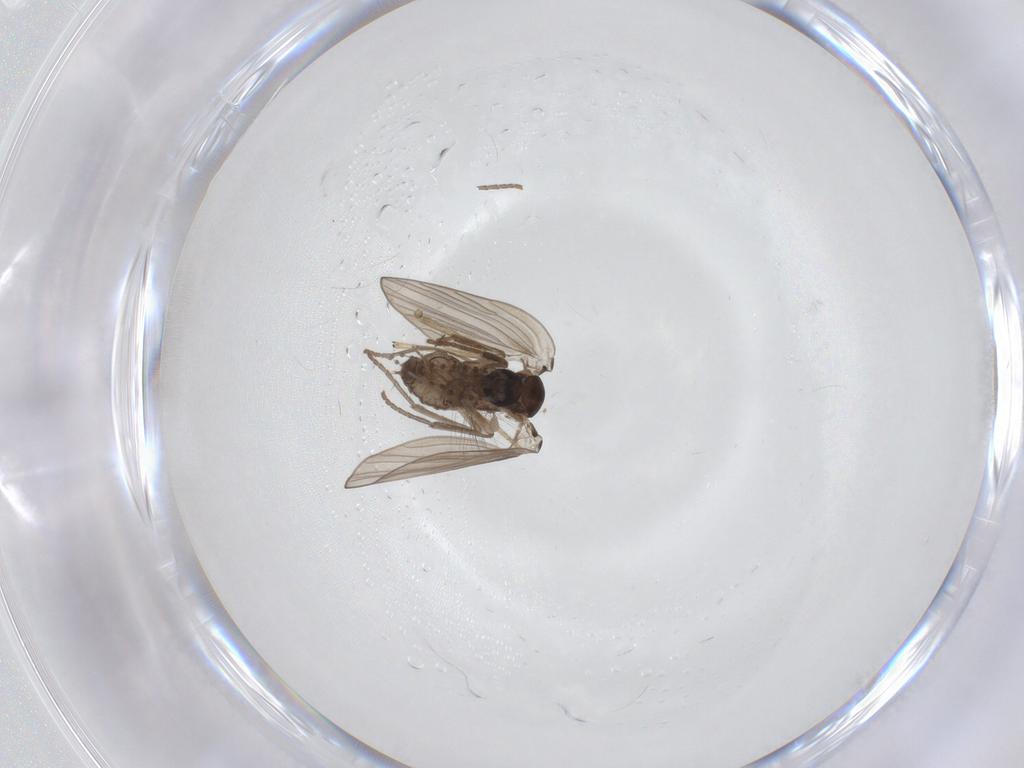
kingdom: Animalia
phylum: Arthropoda
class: Insecta
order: Diptera
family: Chironomidae
